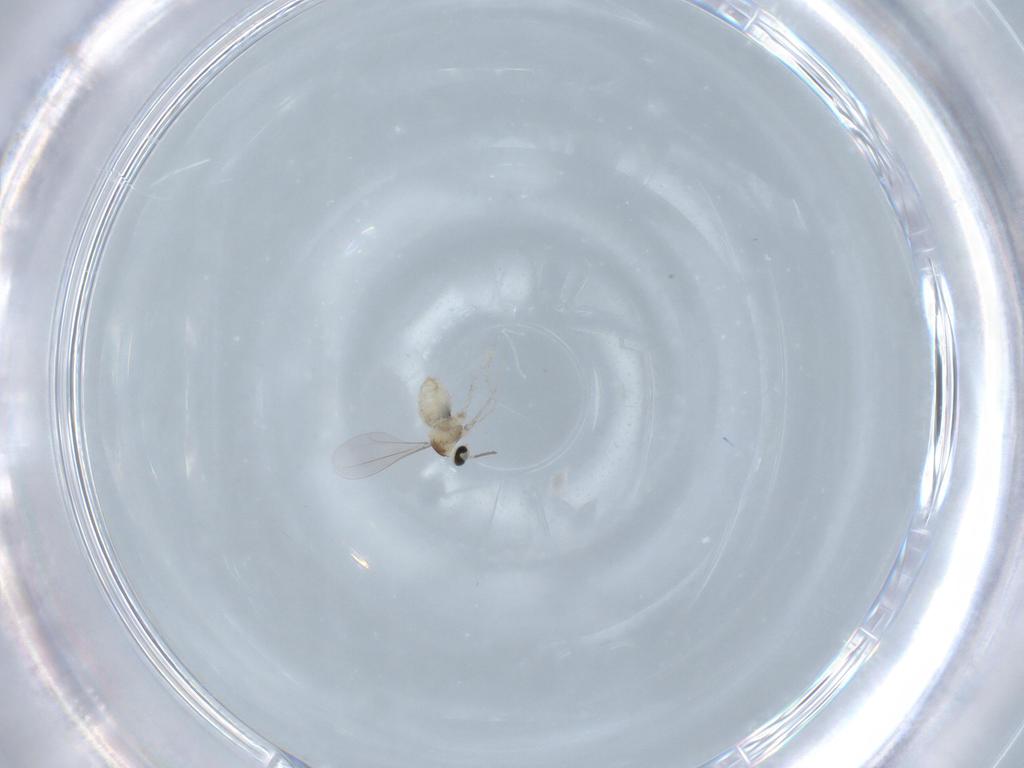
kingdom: Animalia
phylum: Arthropoda
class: Insecta
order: Diptera
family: Cecidomyiidae
